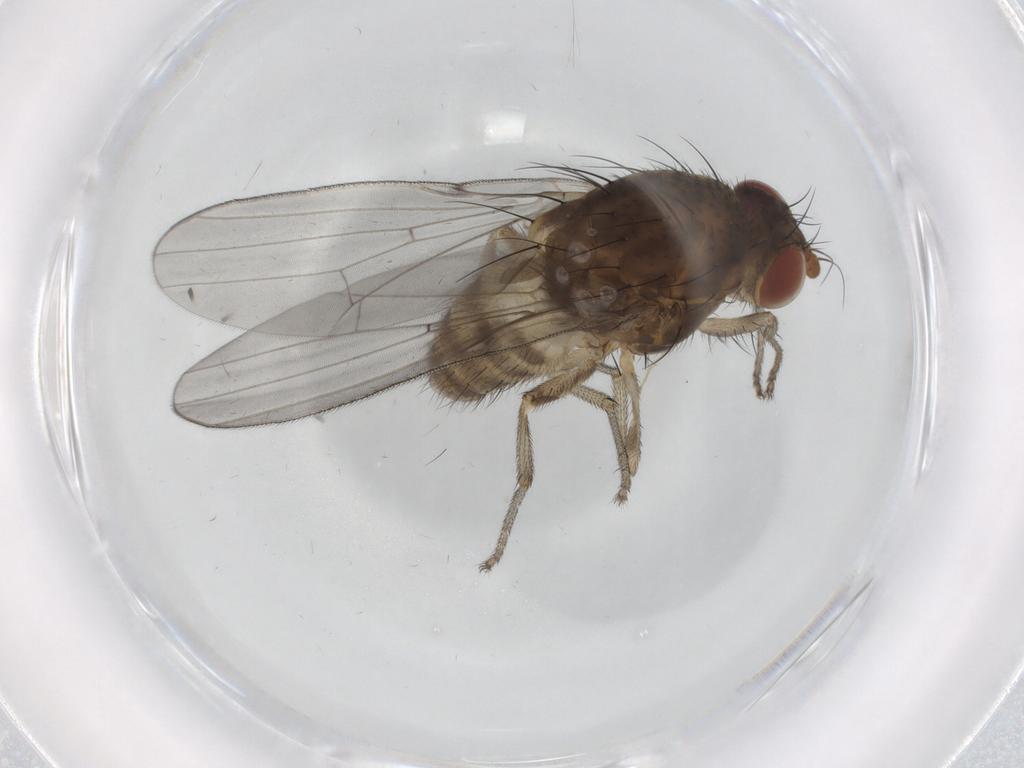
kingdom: Animalia
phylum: Arthropoda
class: Insecta
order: Diptera
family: Lauxaniidae
